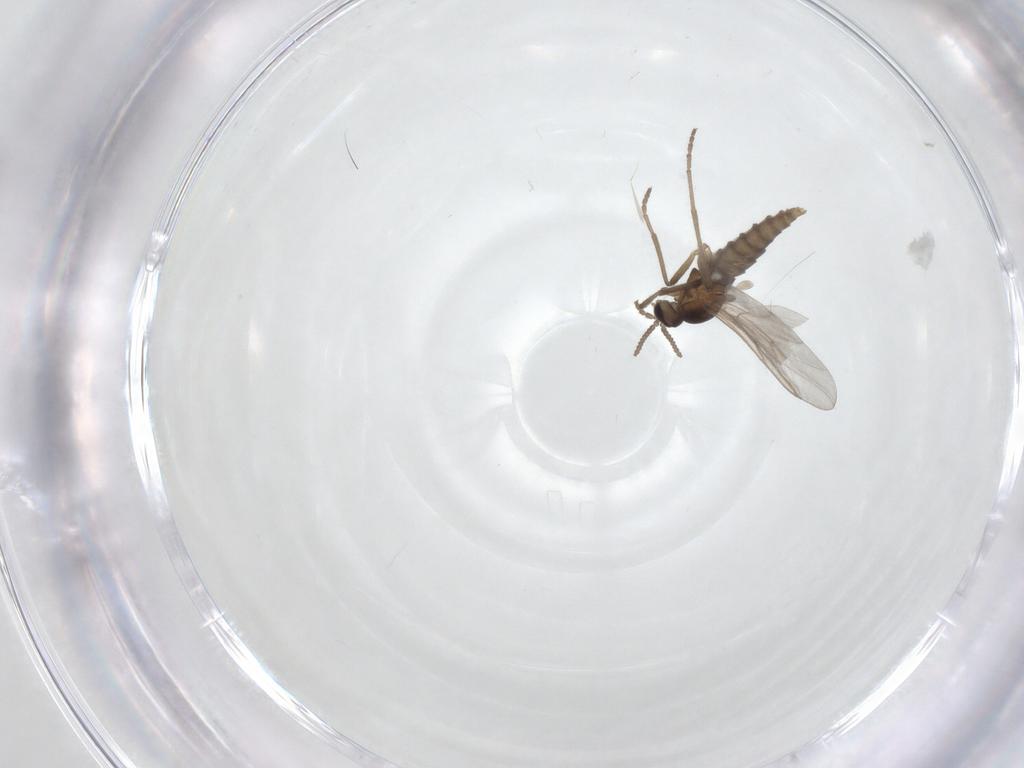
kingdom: Animalia
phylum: Arthropoda
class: Insecta
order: Diptera
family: Cecidomyiidae
